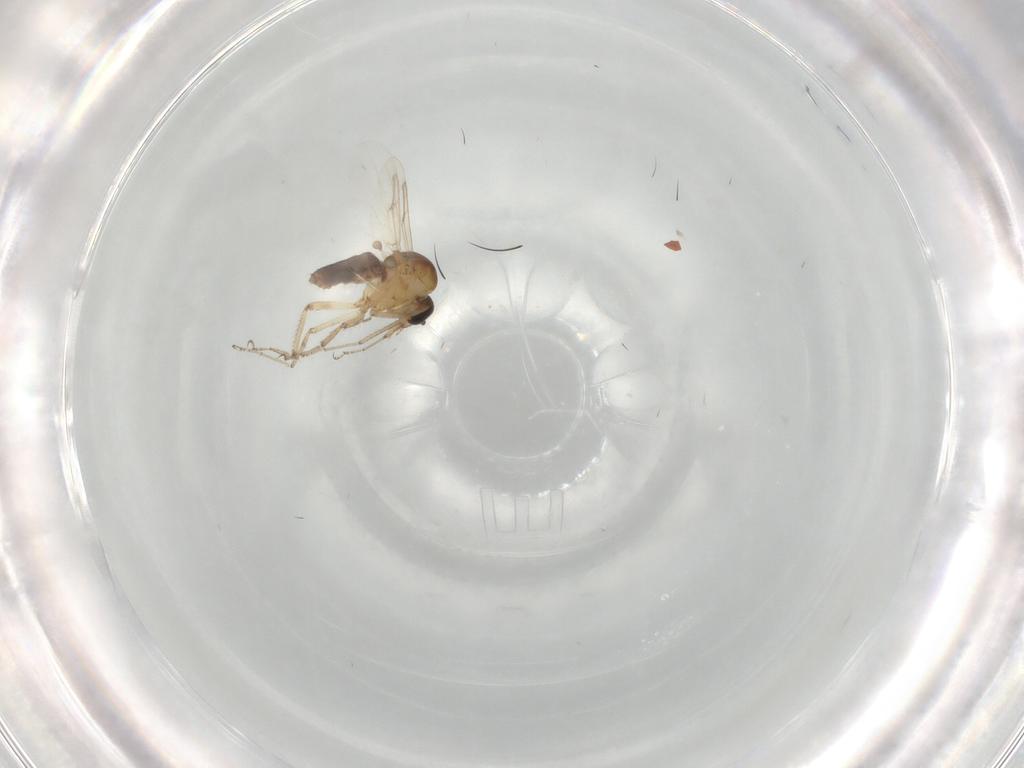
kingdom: Animalia
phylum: Arthropoda
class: Insecta
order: Diptera
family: Ceratopogonidae
